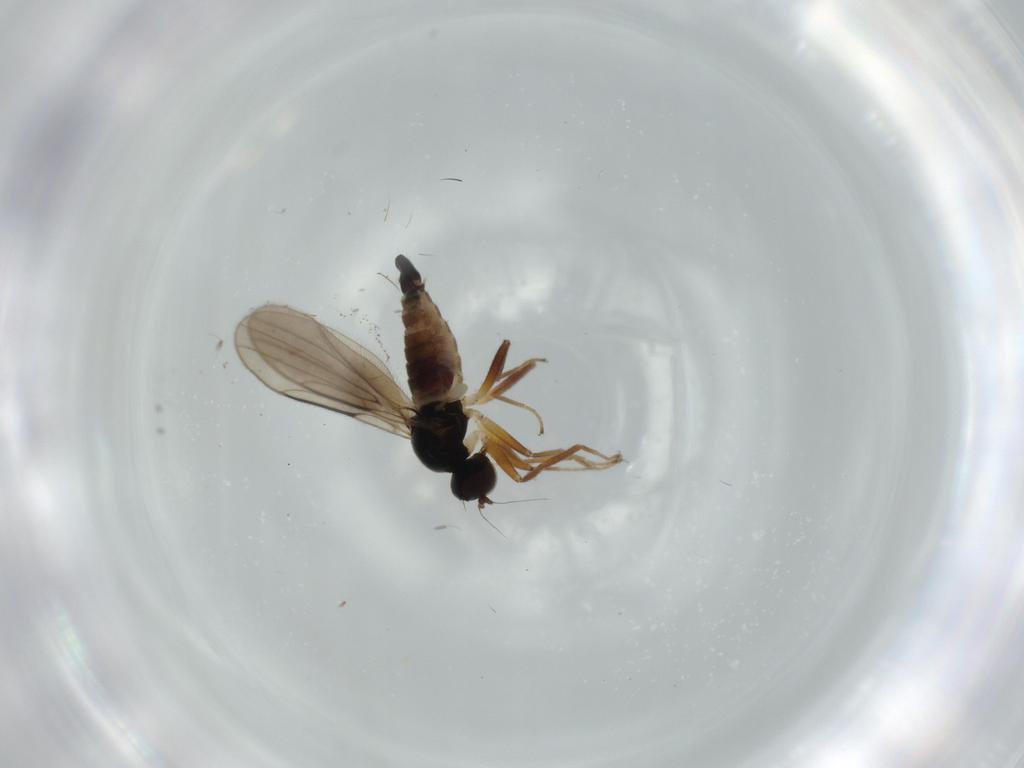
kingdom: Animalia
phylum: Arthropoda
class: Insecta
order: Diptera
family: Hybotidae
